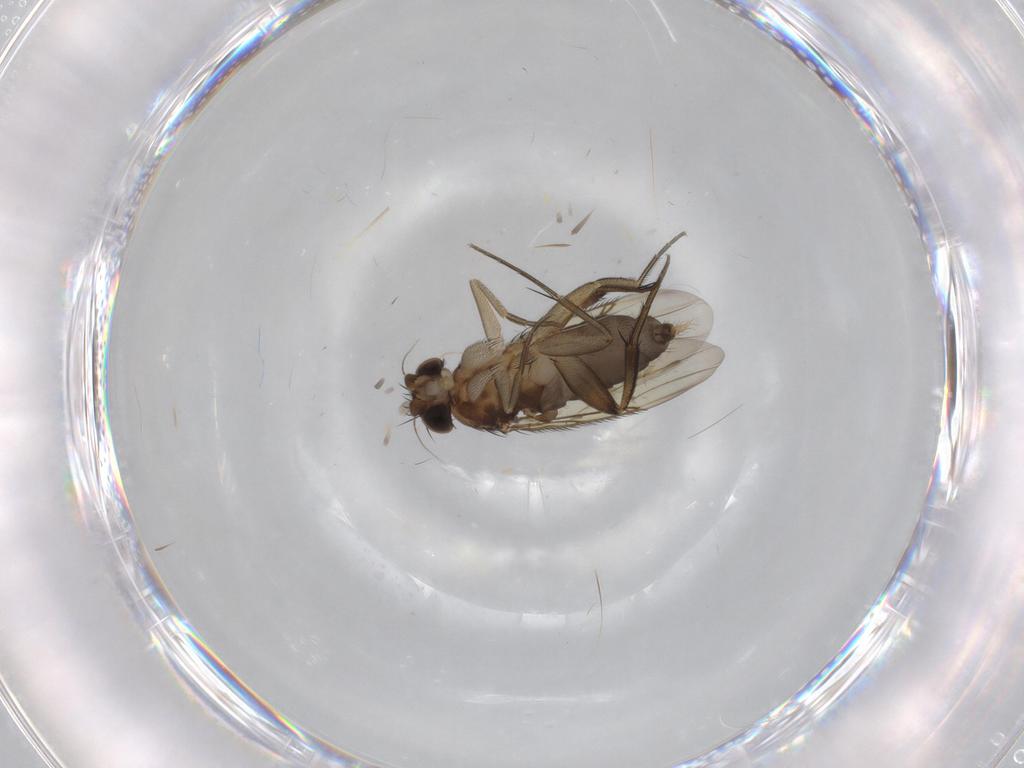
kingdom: Animalia
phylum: Arthropoda
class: Insecta
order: Diptera
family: Phoridae
